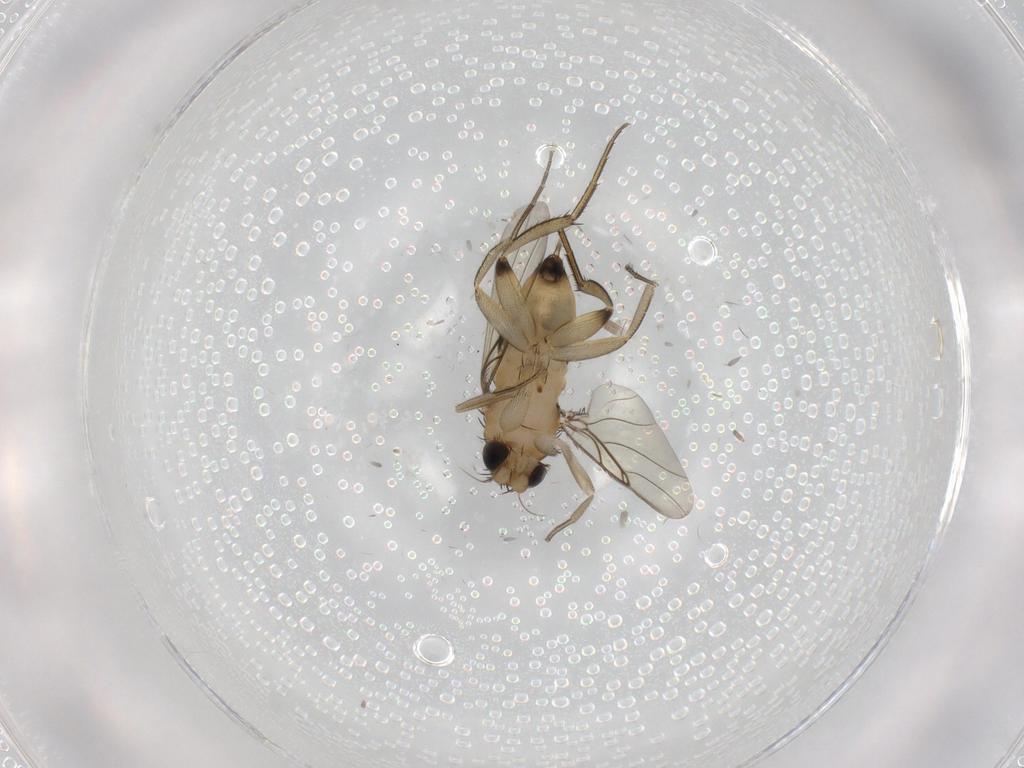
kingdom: Animalia
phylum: Arthropoda
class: Insecta
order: Diptera
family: Phoridae
